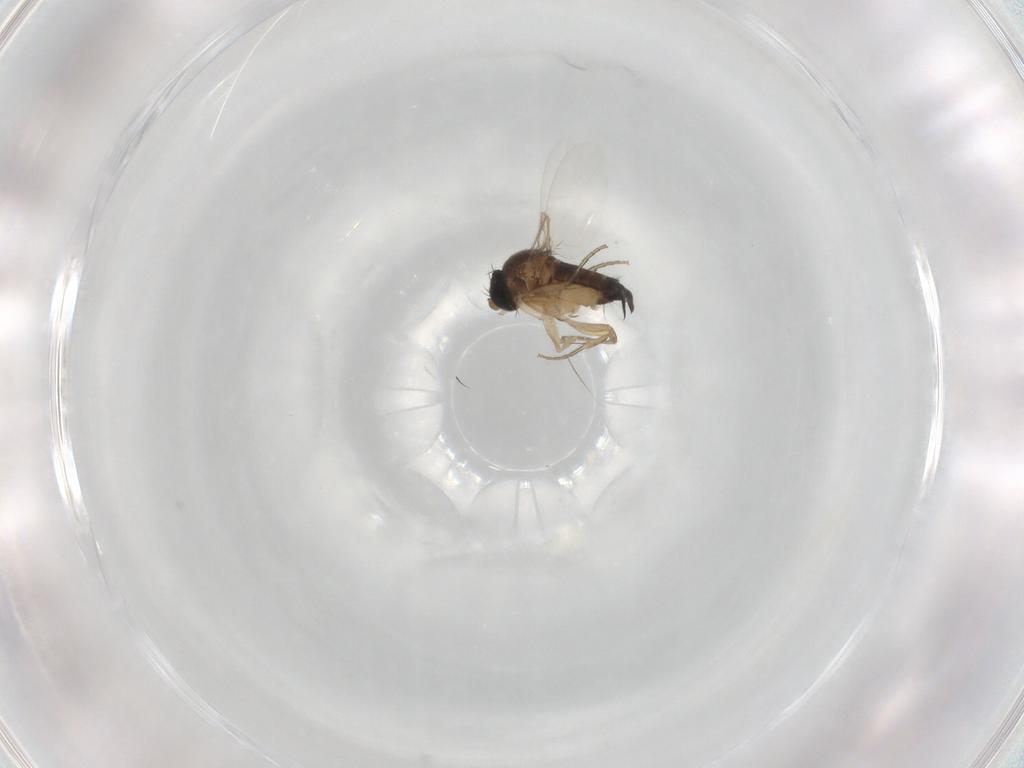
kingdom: Animalia
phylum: Arthropoda
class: Insecta
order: Diptera
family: Phoridae
